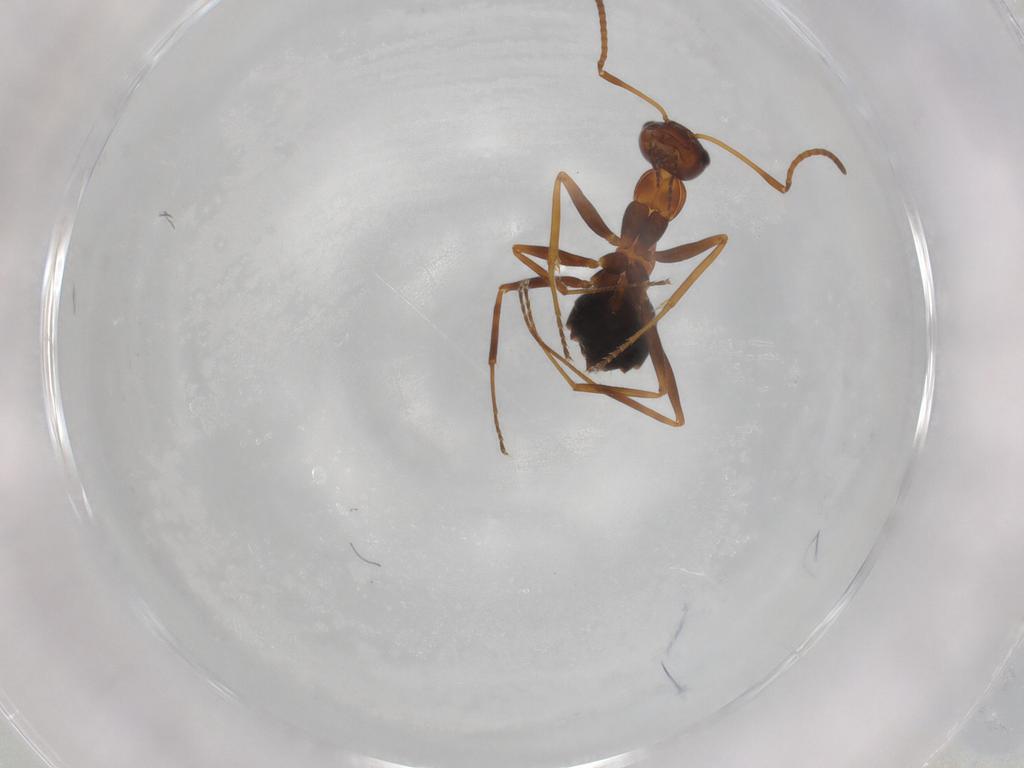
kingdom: Animalia
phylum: Arthropoda
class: Insecta
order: Hymenoptera
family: Formicidae
